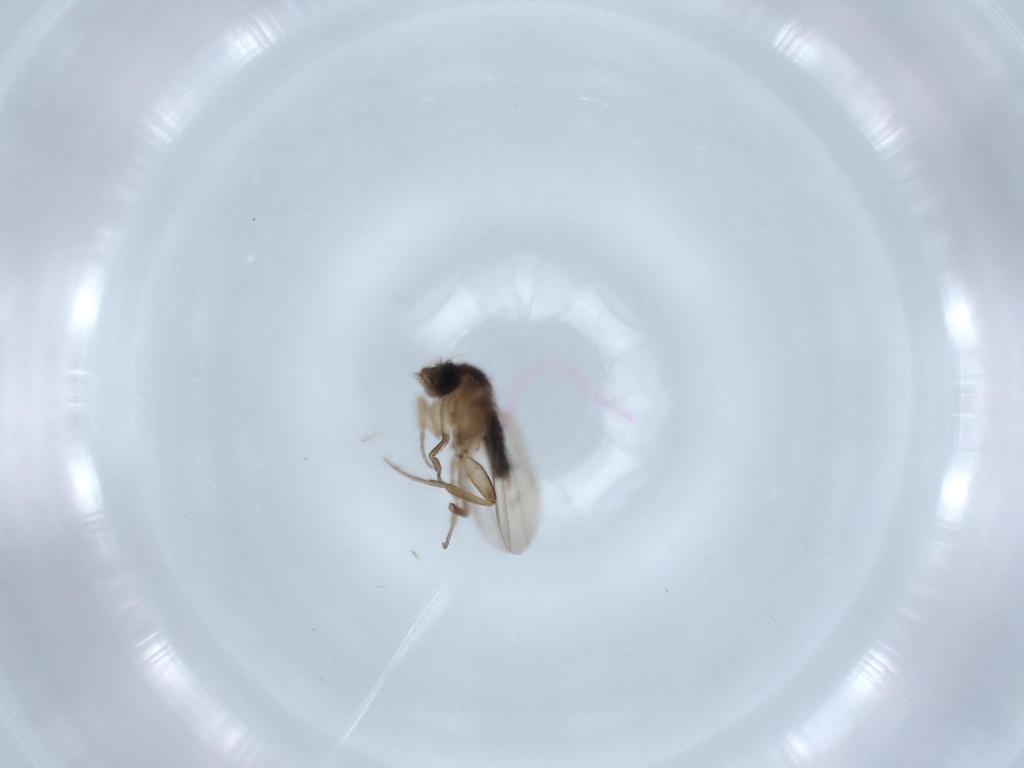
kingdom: Animalia
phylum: Arthropoda
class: Insecta
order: Diptera
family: Phoridae
